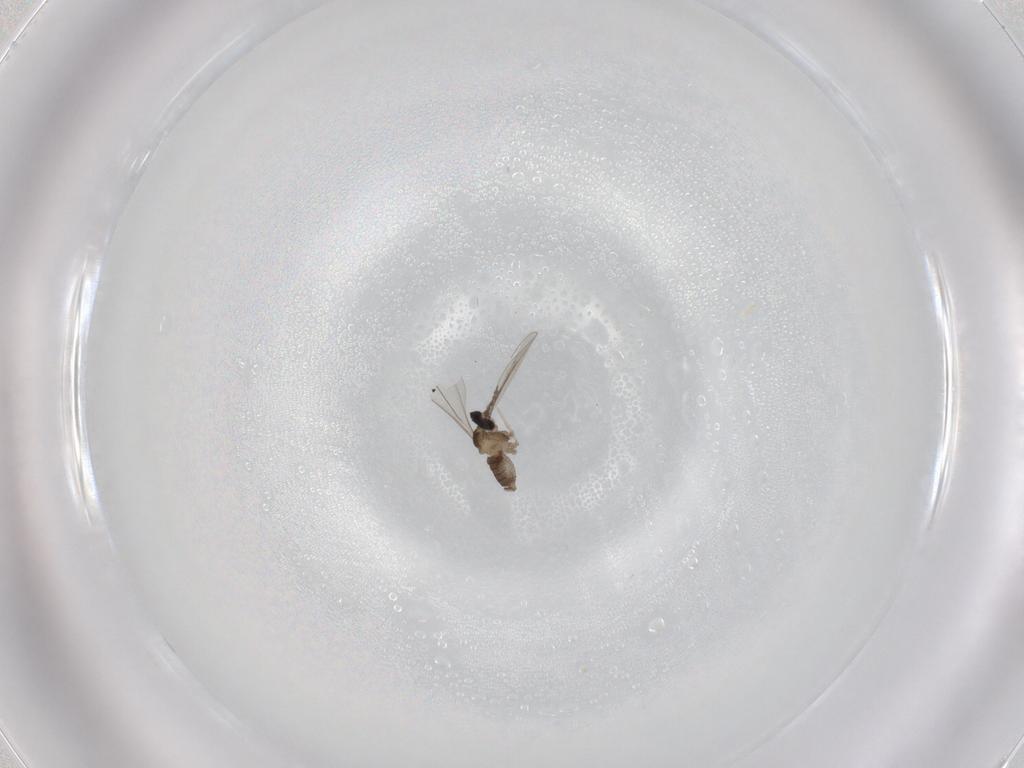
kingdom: Animalia
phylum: Arthropoda
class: Insecta
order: Diptera
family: Cecidomyiidae
